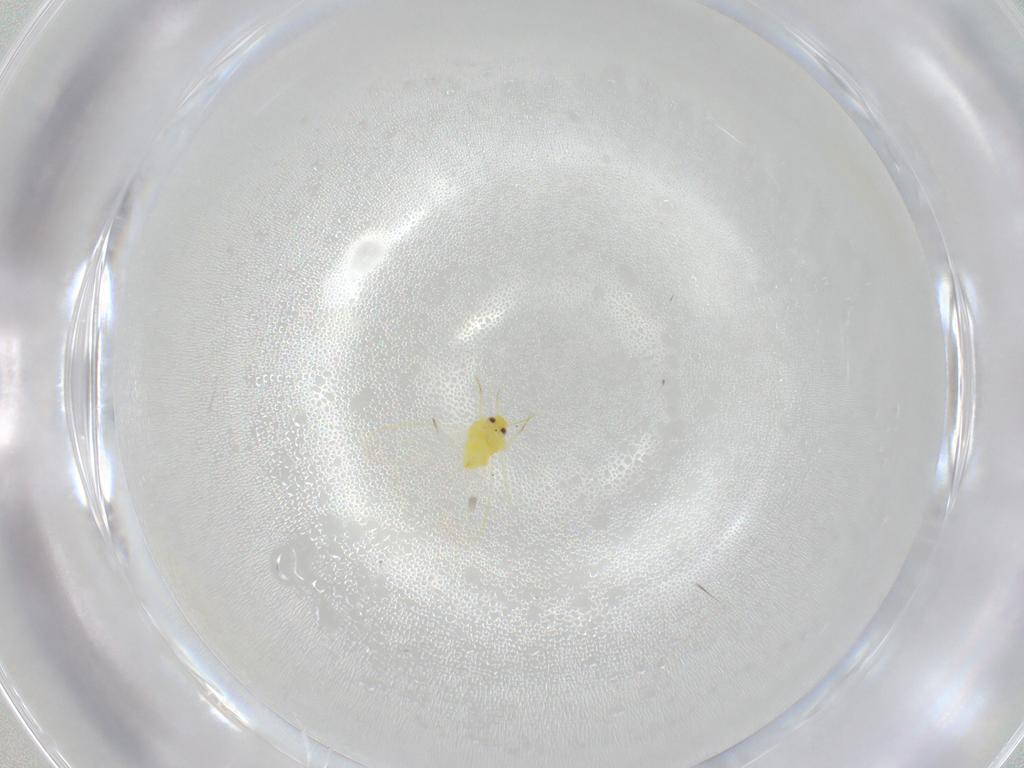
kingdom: Animalia
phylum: Arthropoda
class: Insecta
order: Hemiptera
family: Aleyrodidae
